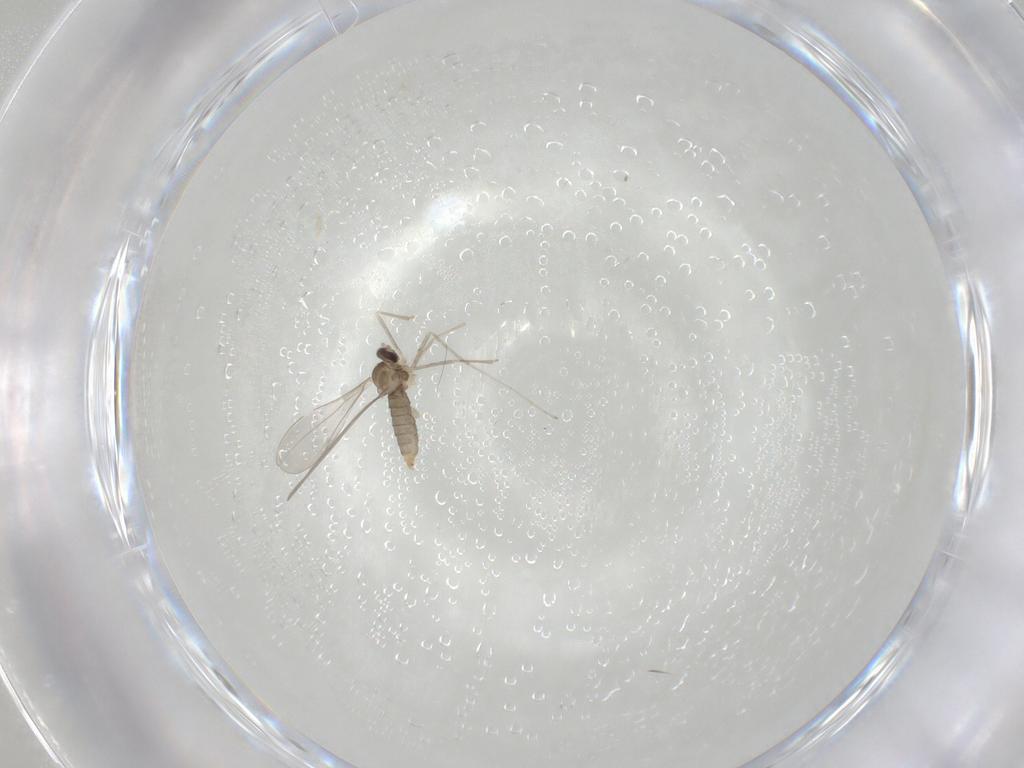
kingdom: Animalia
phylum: Arthropoda
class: Insecta
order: Diptera
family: Cecidomyiidae
